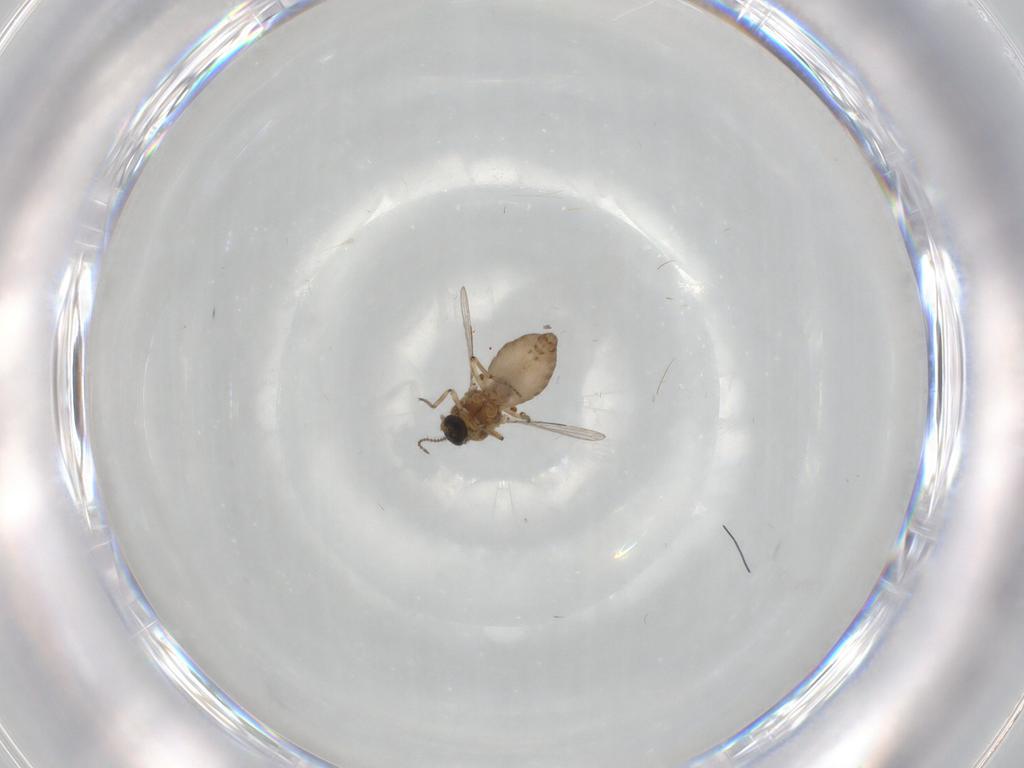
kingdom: Animalia
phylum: Arthropoda
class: Insecta
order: Diptera
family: Ceratopogonidae
